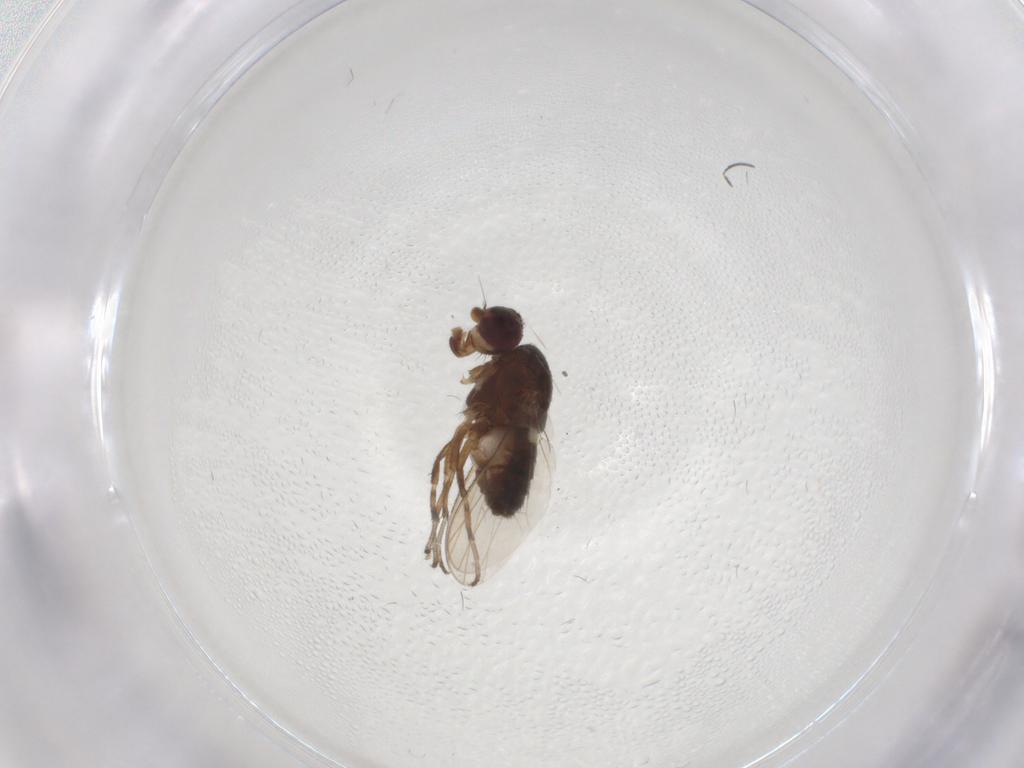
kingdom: Animalia
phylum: Arthropoda
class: Insecta
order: Diptera
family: Heleomyzidae
